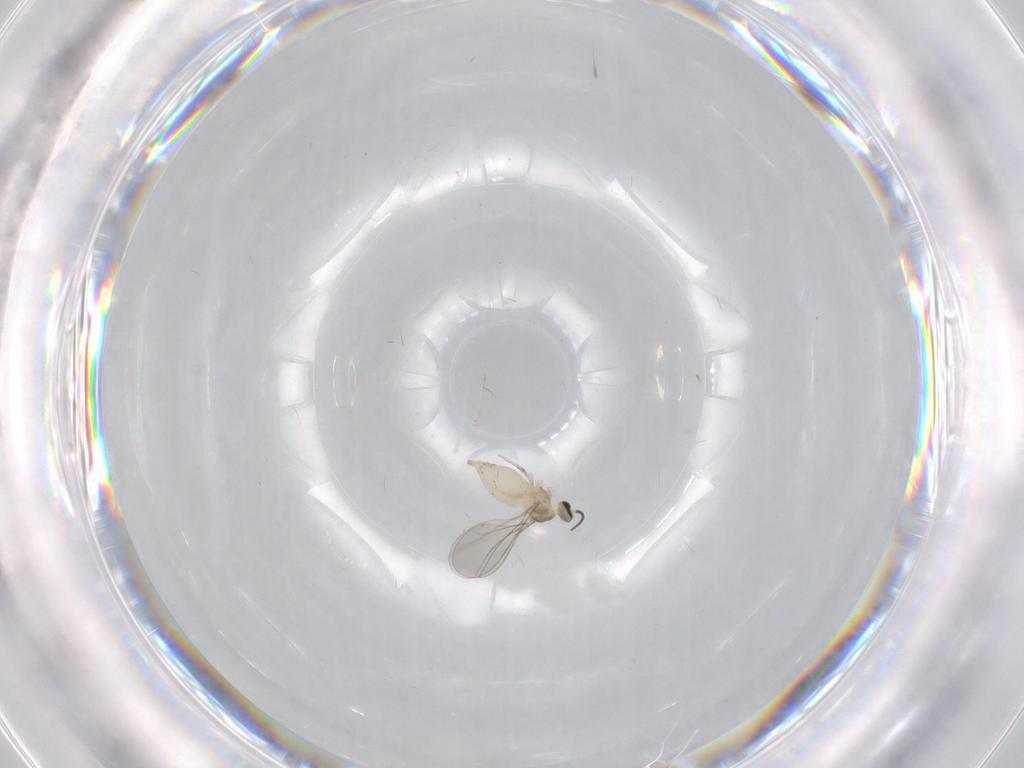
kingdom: Animalia
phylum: Arthropoda
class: Insecta
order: Diptera
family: Cecidomyiidae
